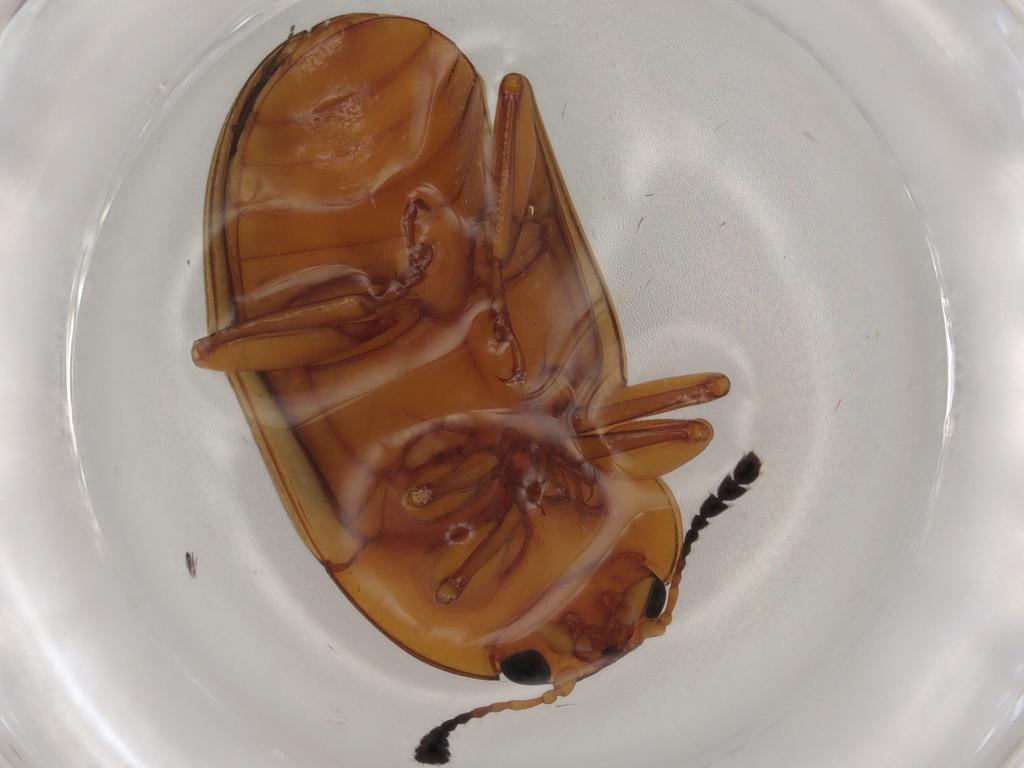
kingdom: Animalia
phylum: Arthropoda
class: Insecta
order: Coleoptera
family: Erotylidae
